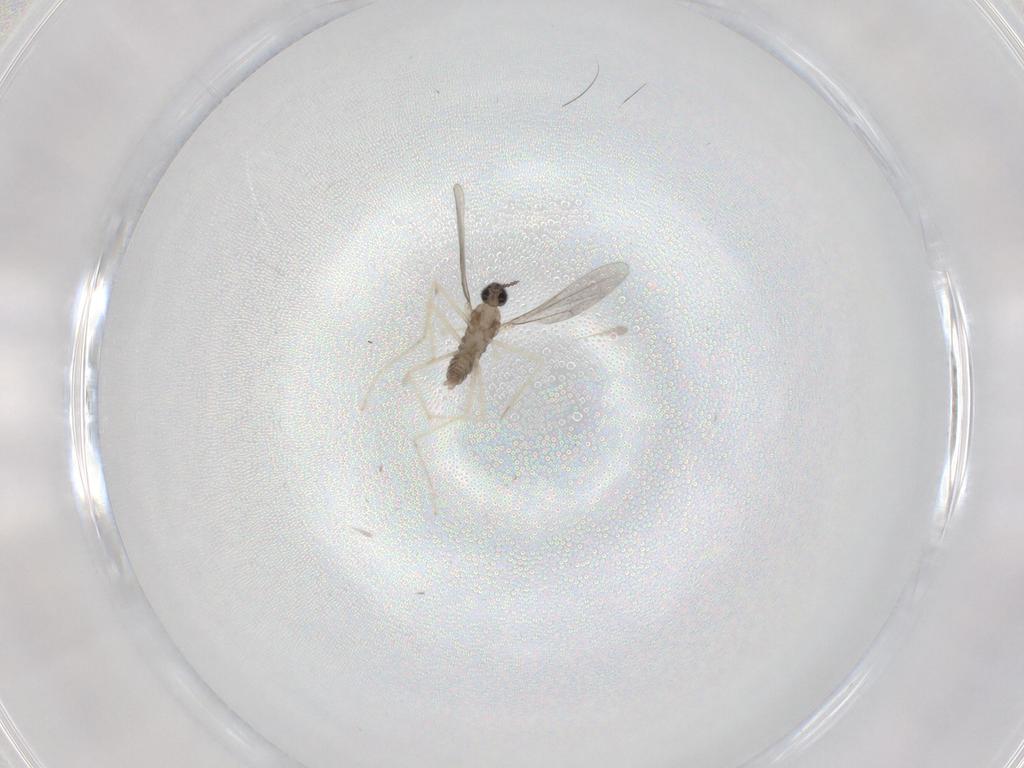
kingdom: Animalia
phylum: Arthropoda
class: Insecta
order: Diptera
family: Cecidomyiidae
